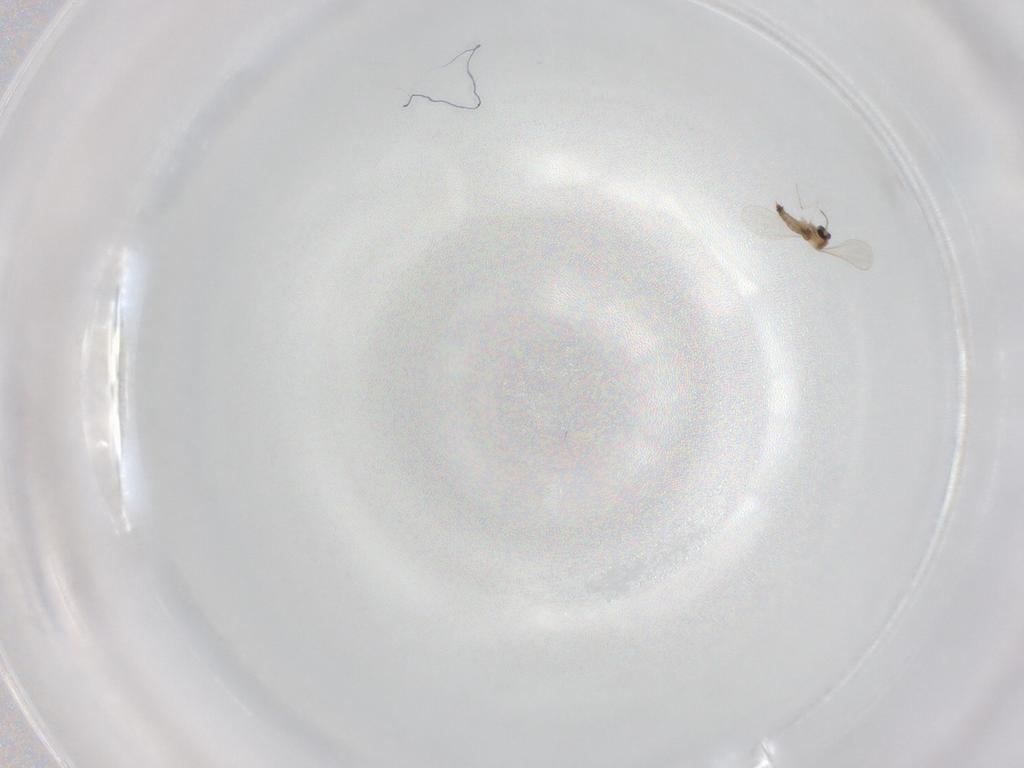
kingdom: Animalia
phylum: Arthropoda
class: Insecta
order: Diptera
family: Cecidomyiidae
